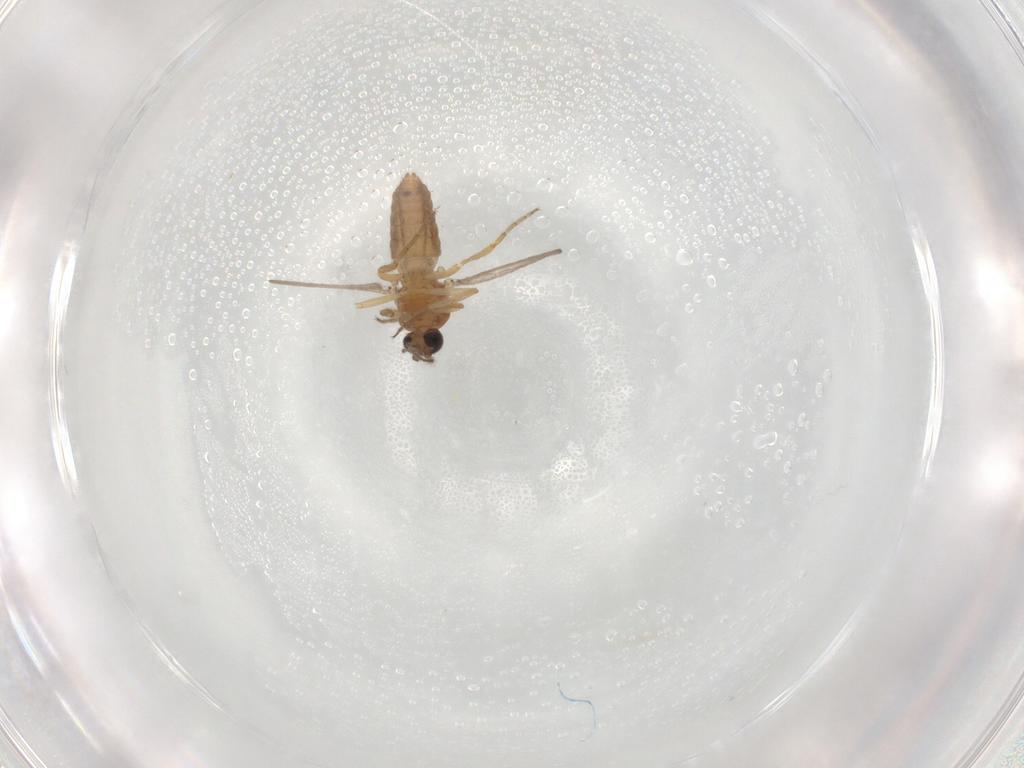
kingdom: Animalia
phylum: Arthropoda
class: Insecta
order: Diptera
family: Ceratopogonidae
